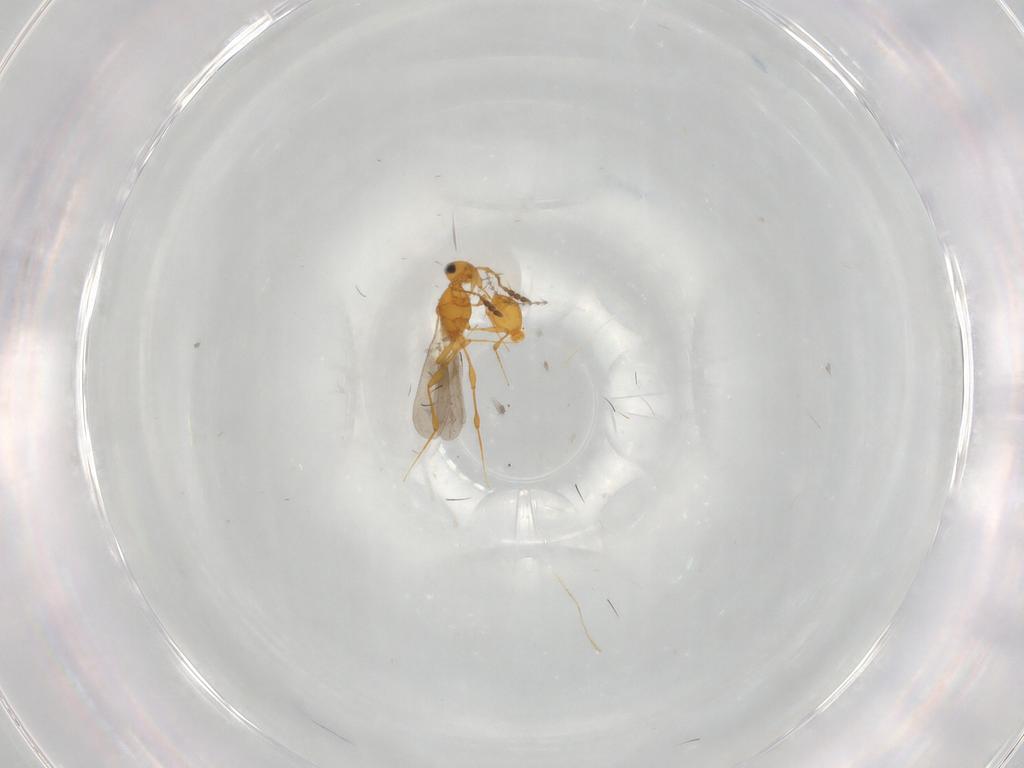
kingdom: Animalia
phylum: Arthropoda
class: Insecta
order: Hymenoptera
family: Platygastridae
